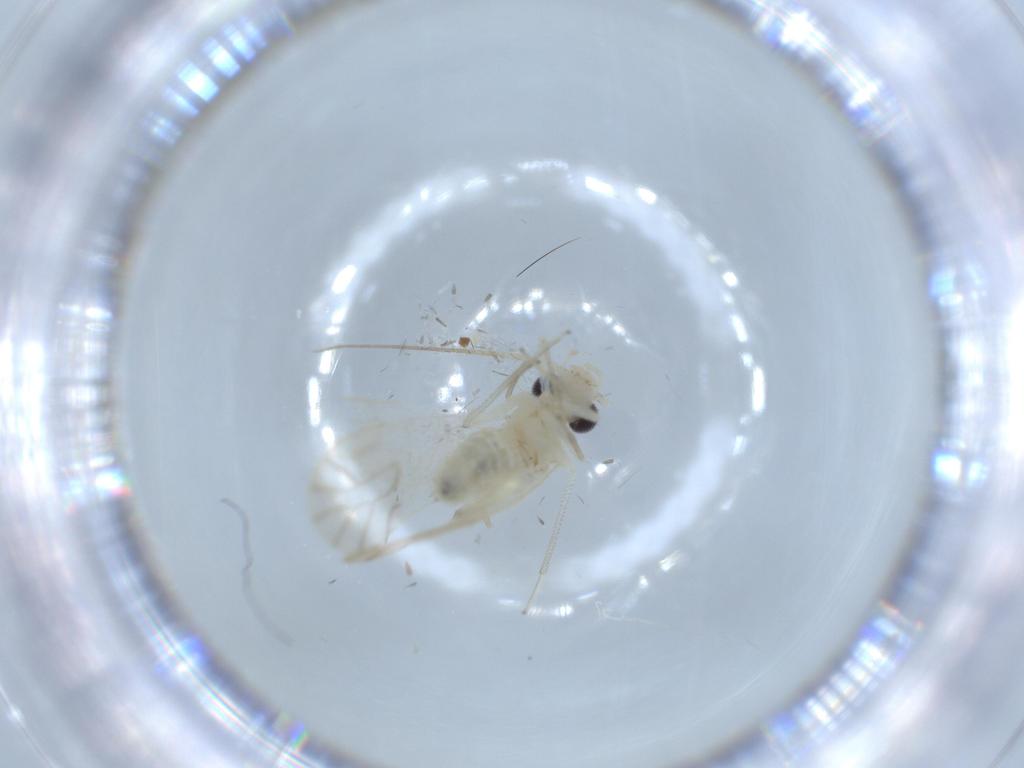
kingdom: Animalia
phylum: Arthropoda
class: Insecta
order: Psocodea
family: Caeciliusidae
